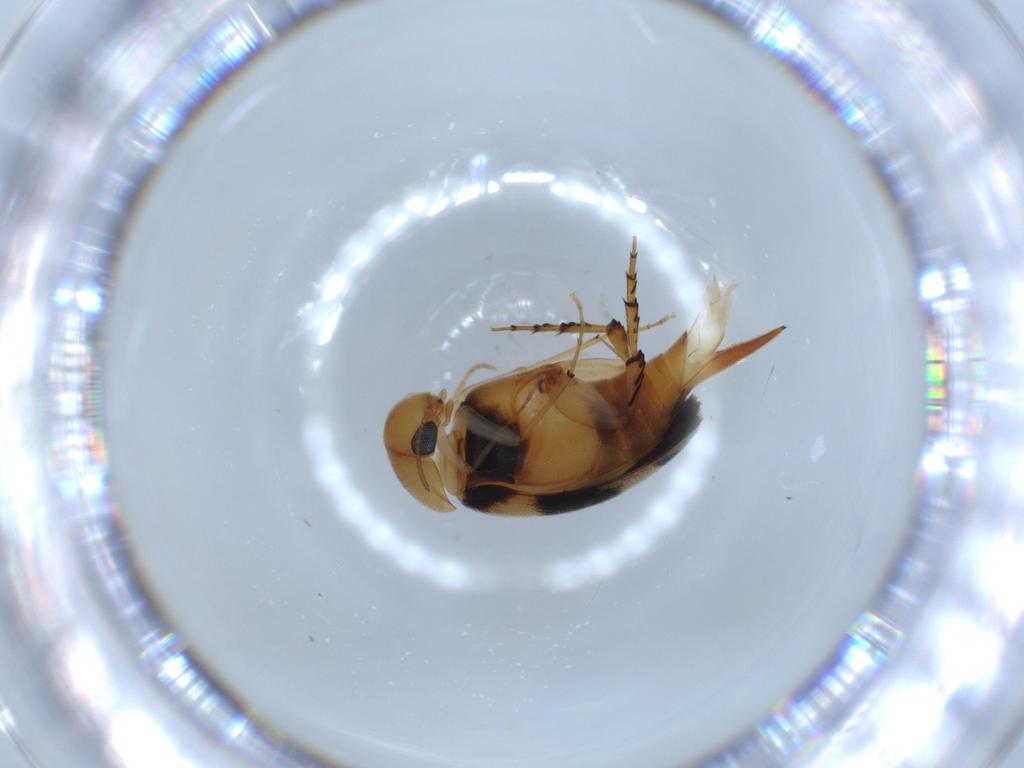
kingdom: Animalia
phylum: Arthropoda
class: Insecta
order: Coleoptera
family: Mordellidae
